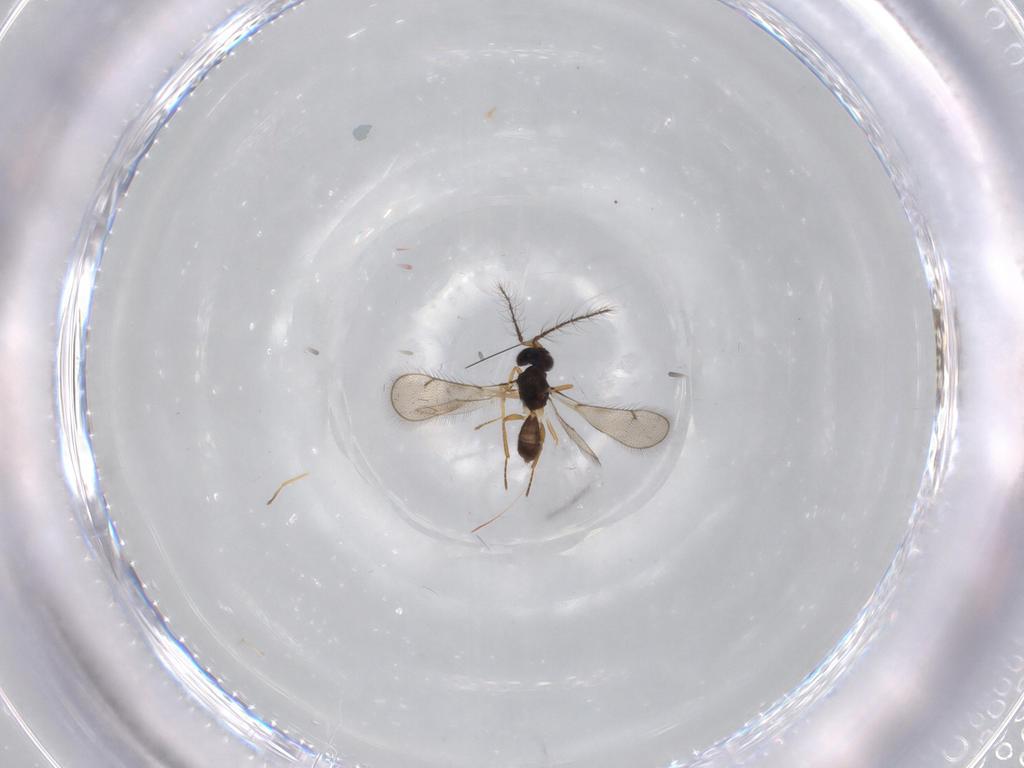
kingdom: Animalia
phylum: Arthropoda
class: Insecta
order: Hymenoptera
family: Eulophidae
